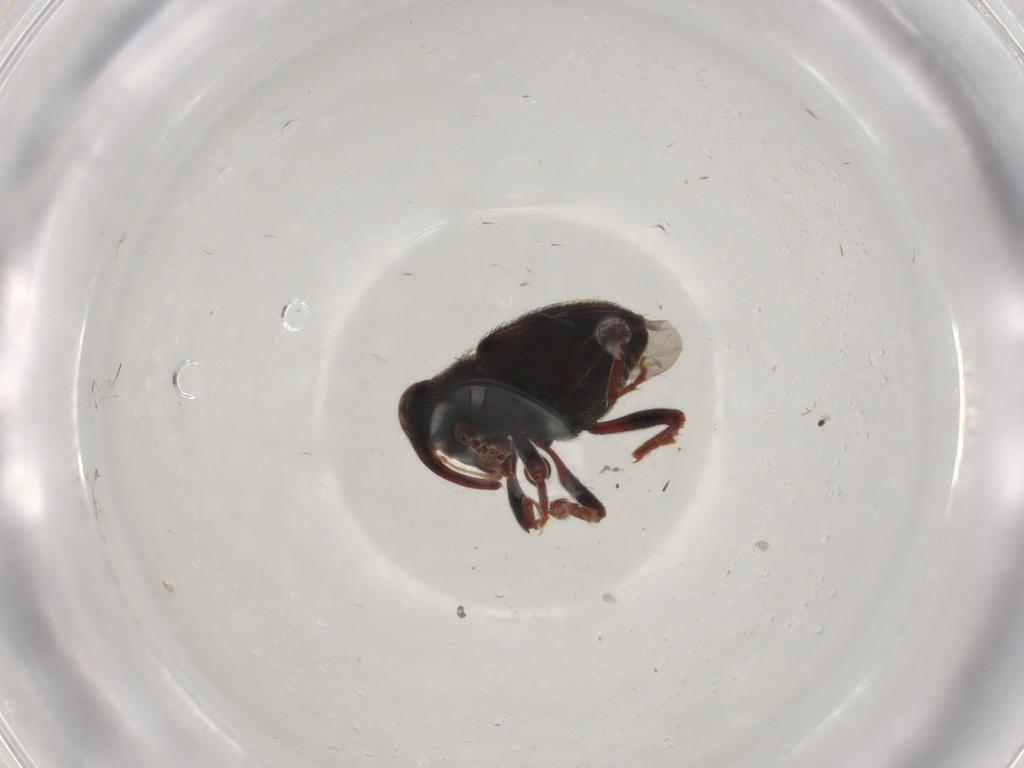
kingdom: Animalia
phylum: Arthropoda
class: Insecta
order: Coleoptera
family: Curculionidae
